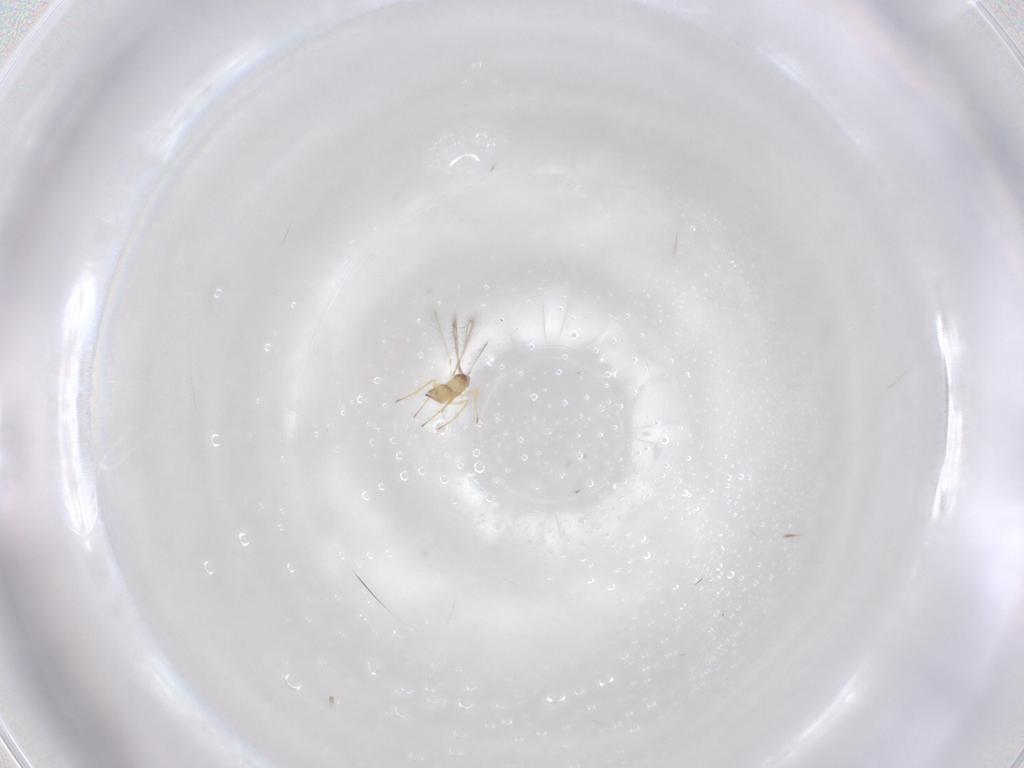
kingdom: Animalia
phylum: Arthropoda
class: Insecta
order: Hymenoptera
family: Mymaridae
